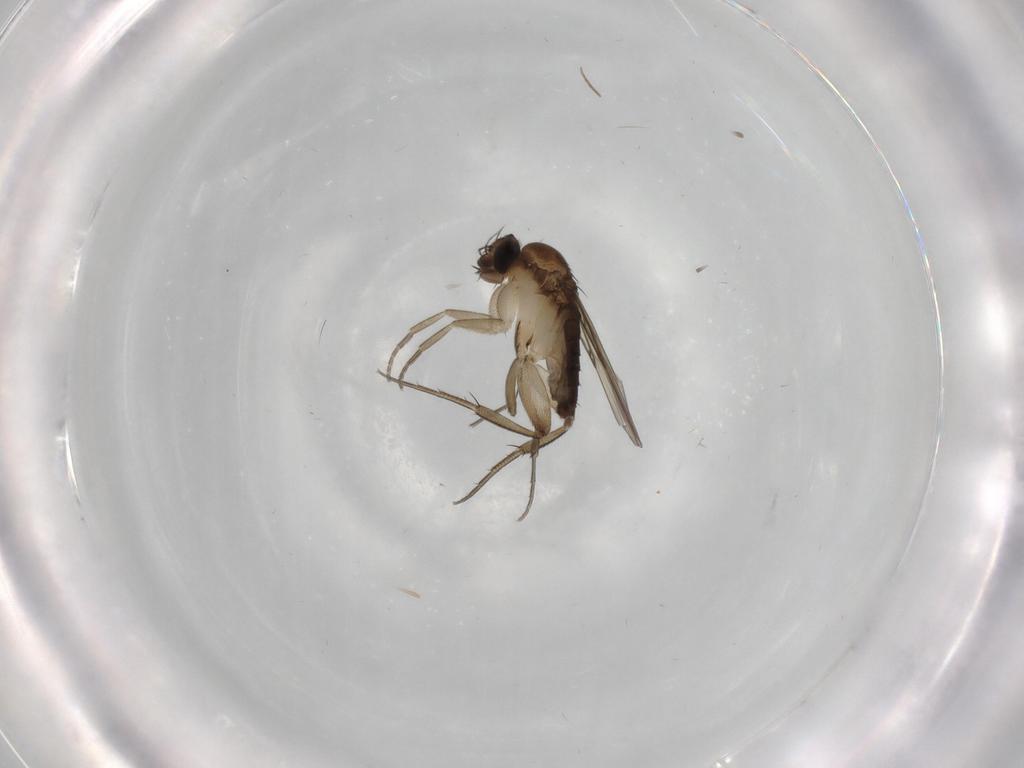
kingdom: Animalia
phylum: Arthropoda
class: Insecta
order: Diptera
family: Phoridae
